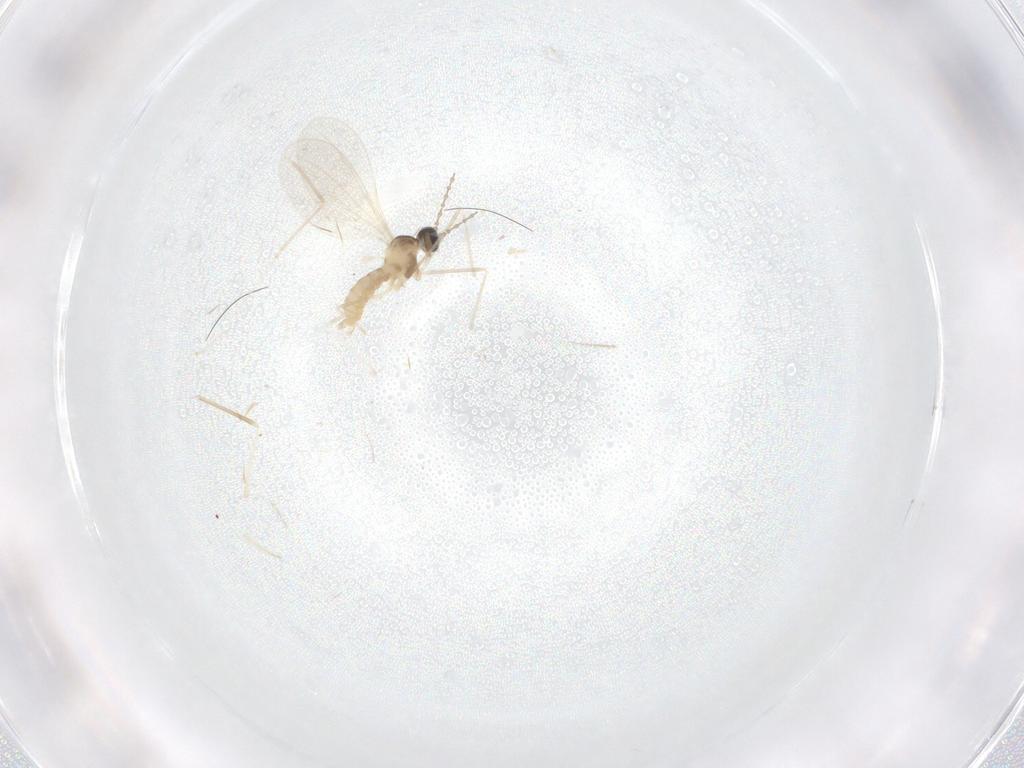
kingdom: Animalia
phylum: Arthropoda
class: Insecta
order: Diptera
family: Cecidomyiidae
